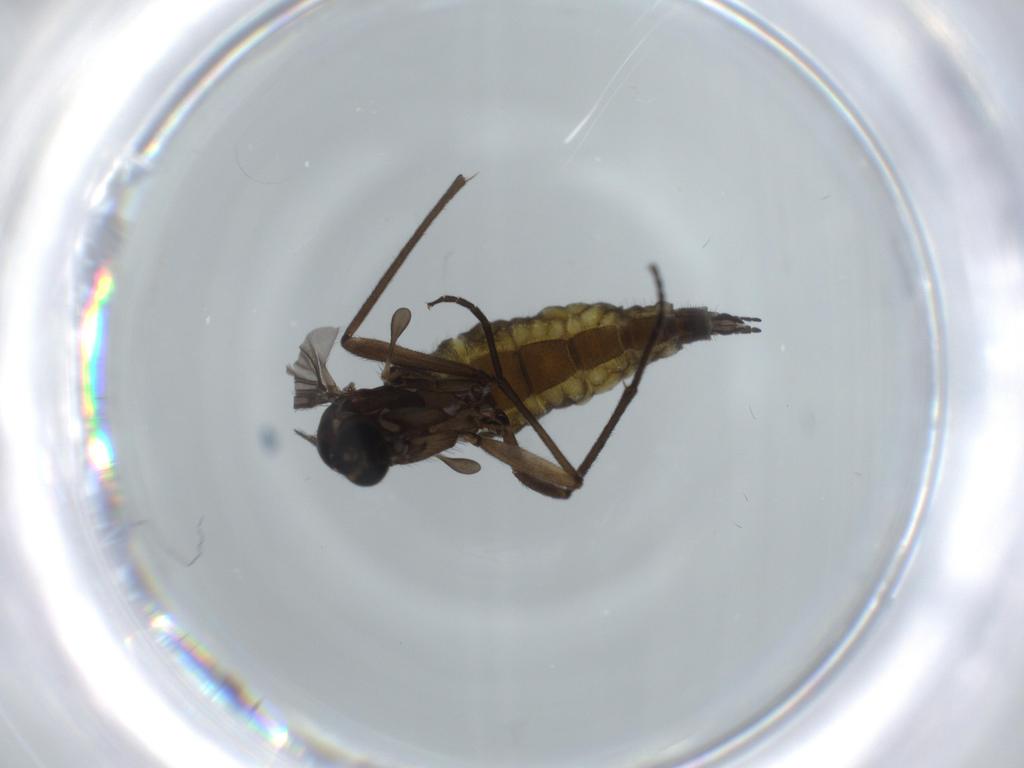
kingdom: Animalia
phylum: Arthropoda
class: Insecta
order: Diptera
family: Sciaridae
